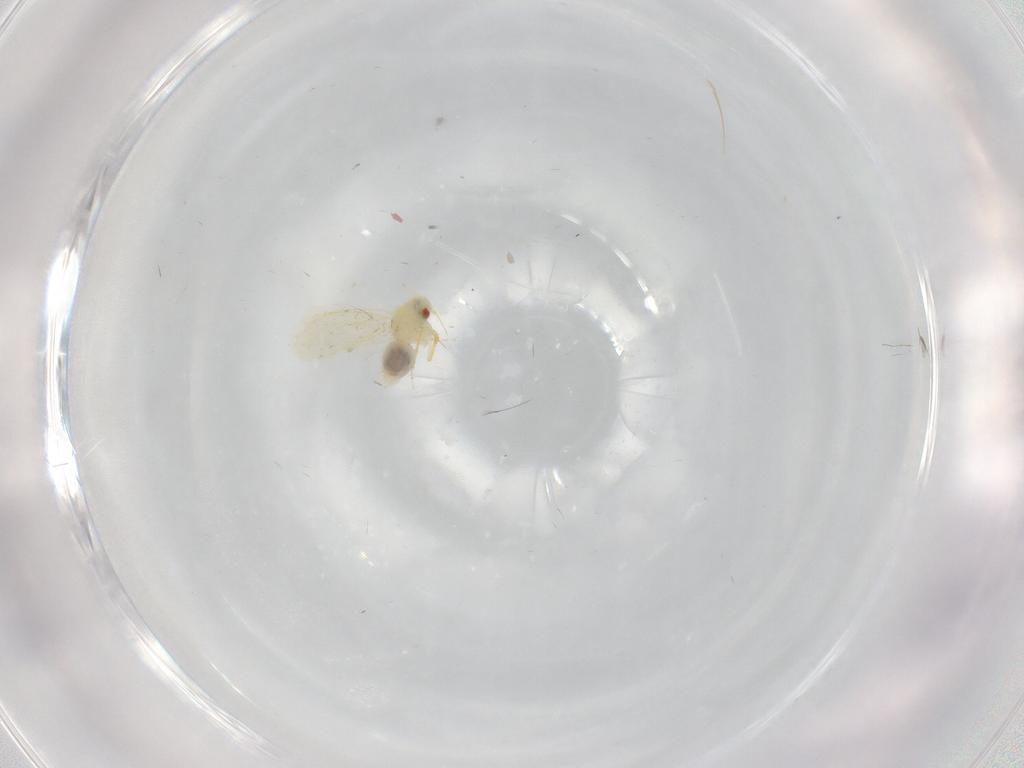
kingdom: Animalia
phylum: Arthropoda
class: Insecta
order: Hemiptera
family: Aleyrodidae
